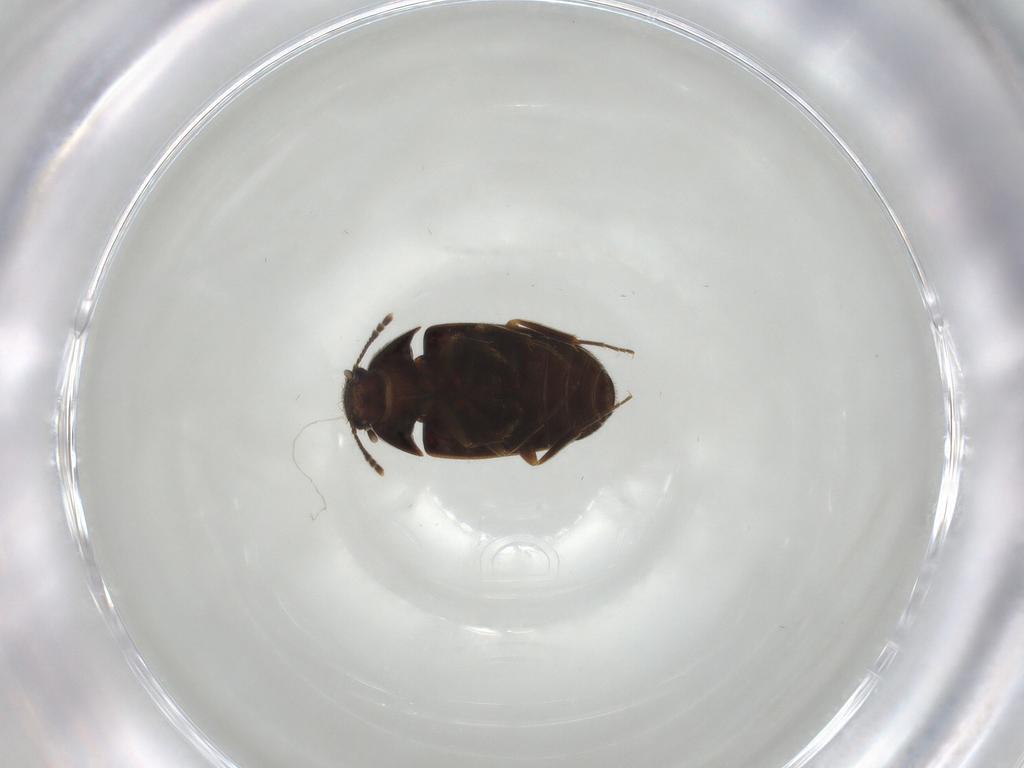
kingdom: Animalia
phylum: Arthropoda
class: Insecta
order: Coleoptera
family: Mycetophagidae
